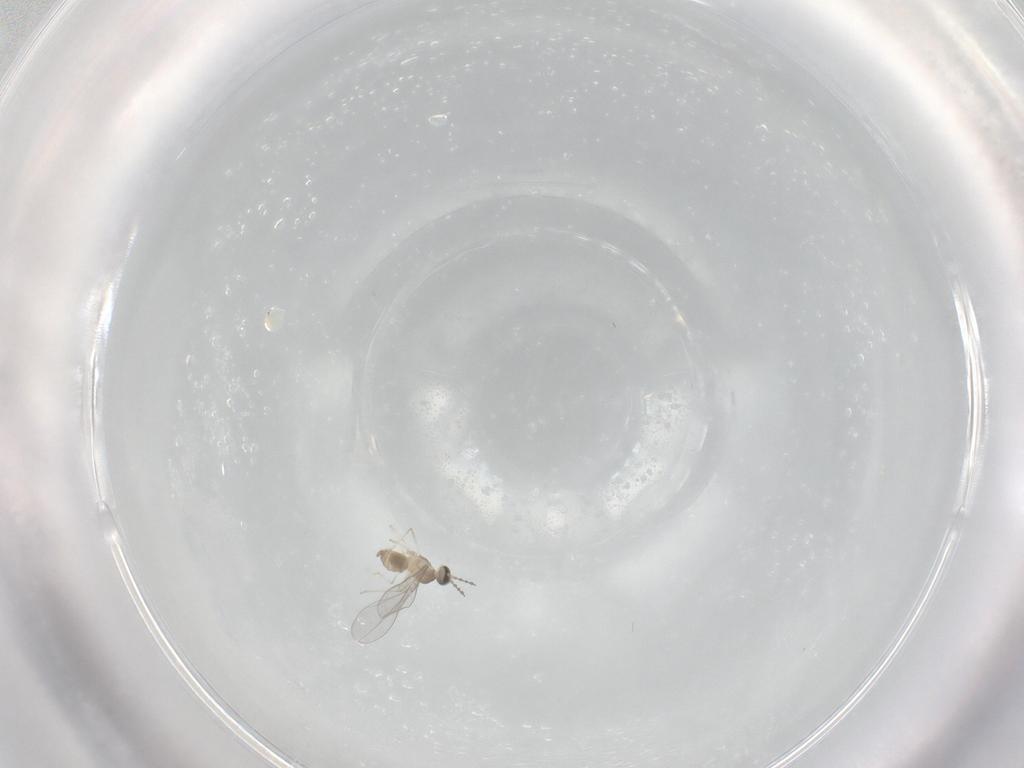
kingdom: Animalia
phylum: Arthropoda
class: Insecta
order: Diptera
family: Cecidomyiidae
